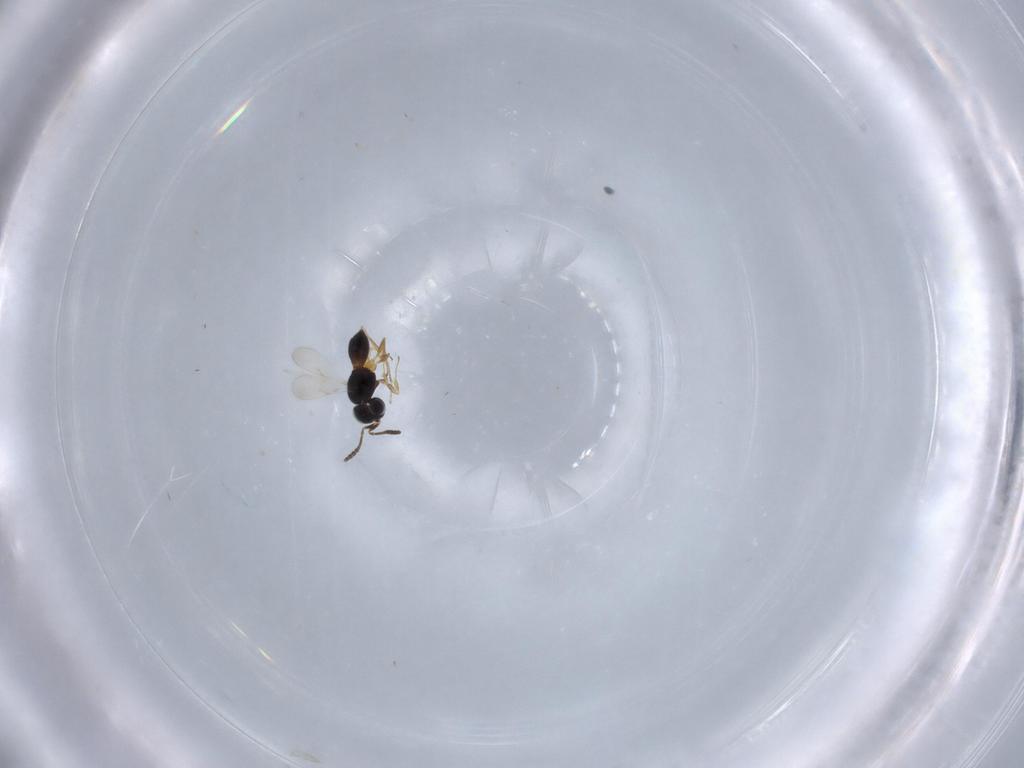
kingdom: Animalia
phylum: Arthropoda
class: Insecta
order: Hymenoptera
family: Scelionidae
